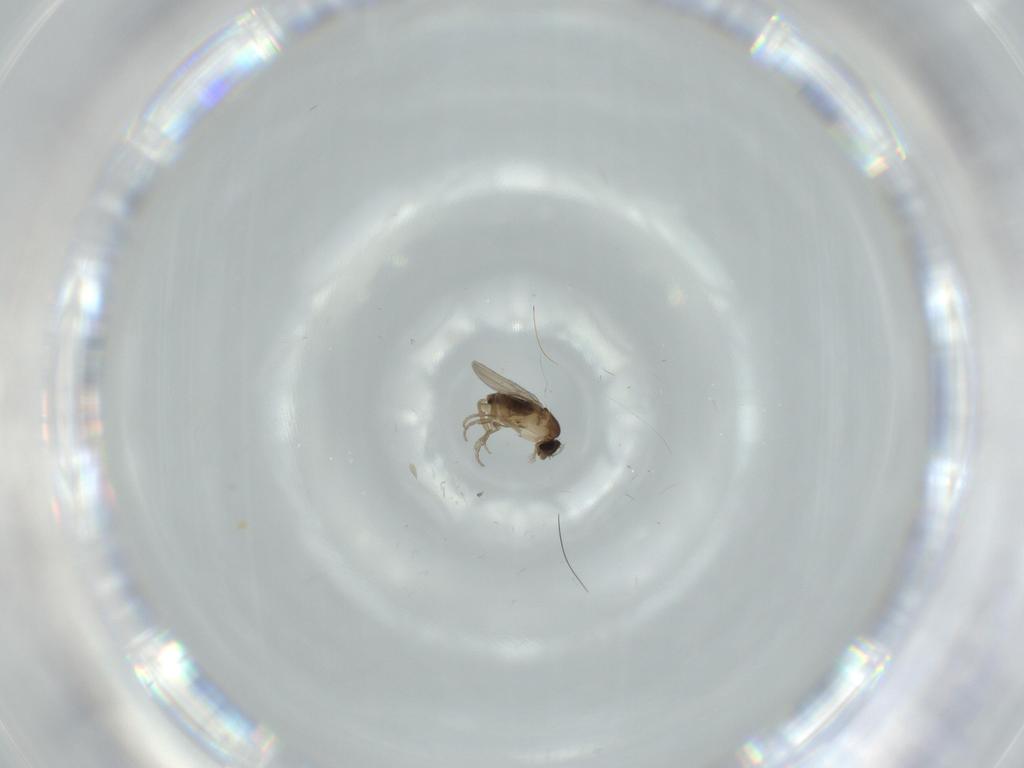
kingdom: Animalia
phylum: Arthropoda
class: Insecta
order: Diptera
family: Phoridae
